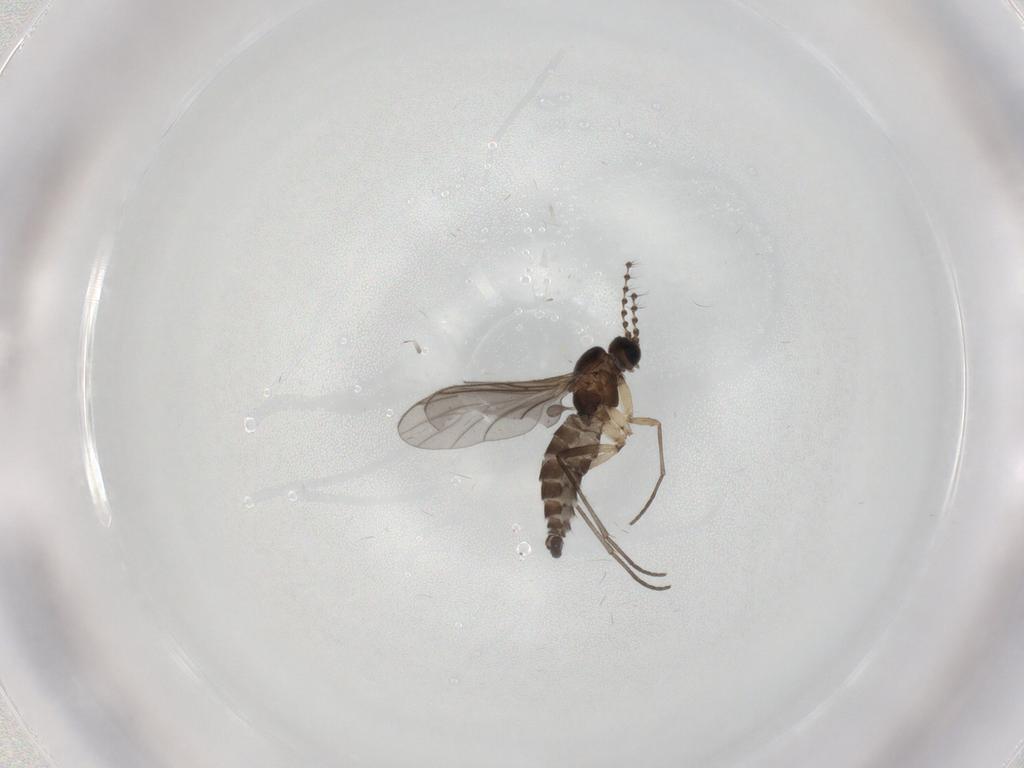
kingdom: Animalia
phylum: Arthropoda
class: Insecta
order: Diptera
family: Sciaridae
